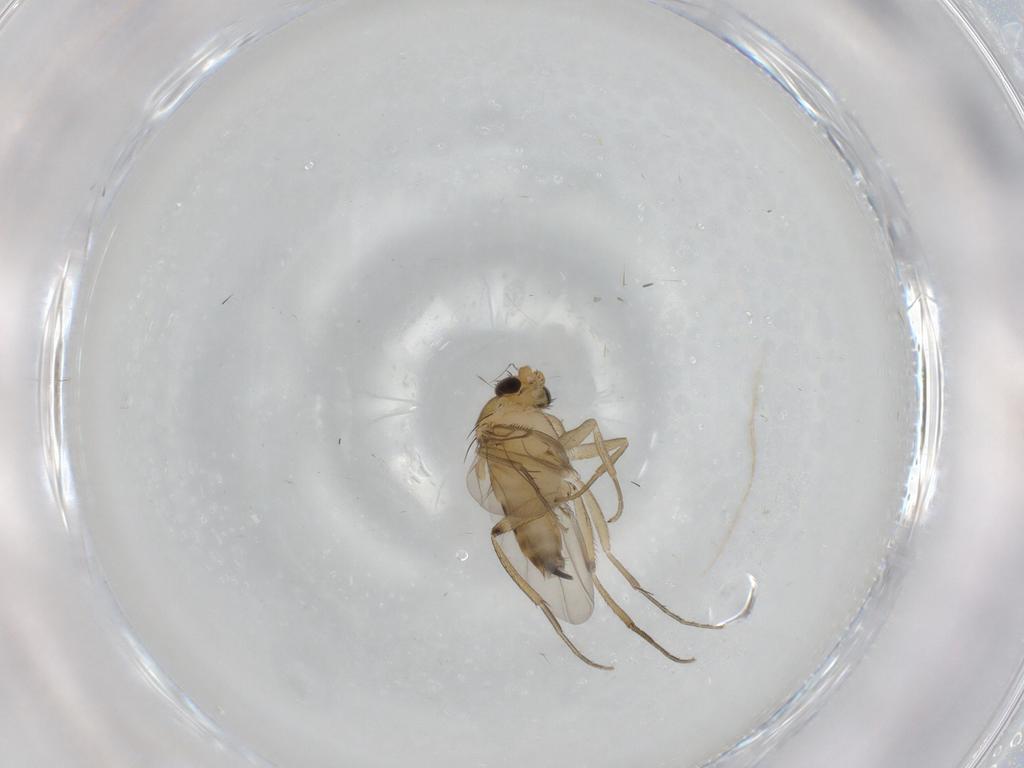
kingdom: Animalia
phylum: Arthropoda
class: Insecta
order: Diptera
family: Phoridae
